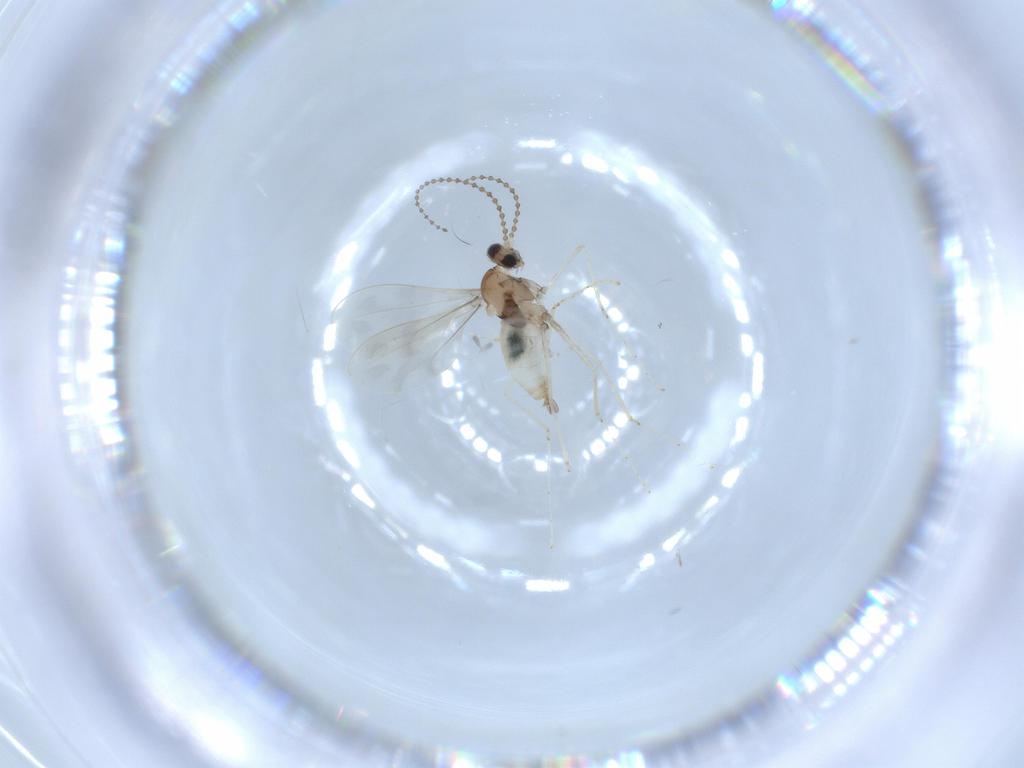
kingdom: Animalia
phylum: Arthropoda
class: Insecta
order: Diptera
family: Cecidomyiidae
